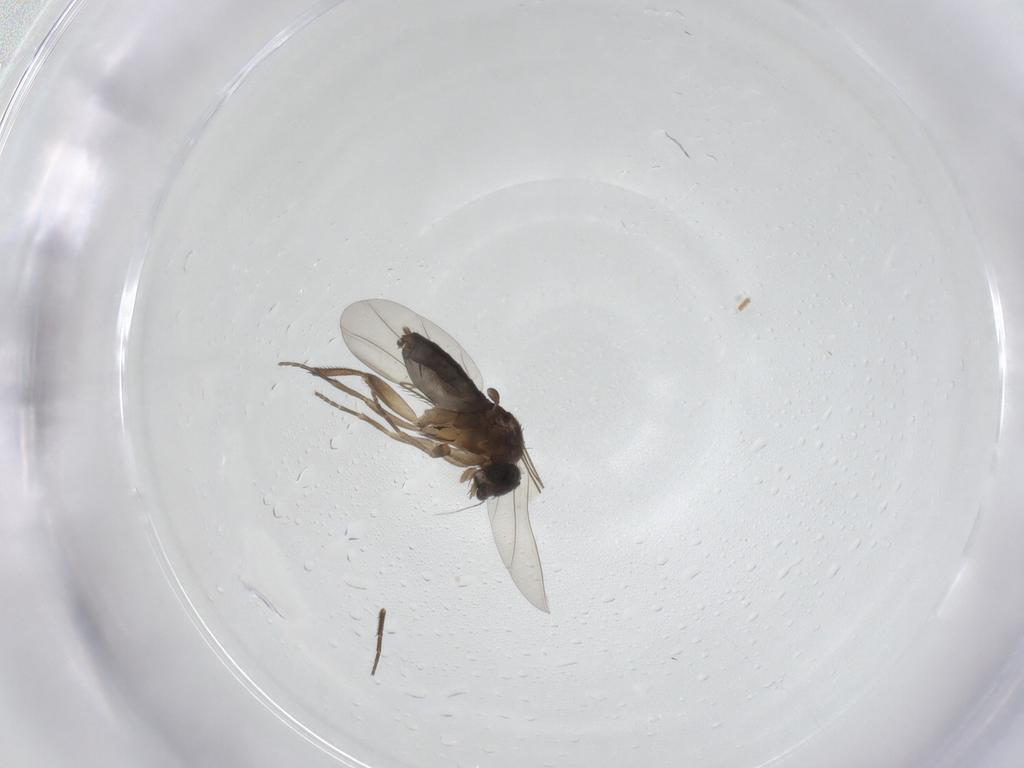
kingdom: Animalia
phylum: Arthropoda
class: Insecta
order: Diptera
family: Phoridae
